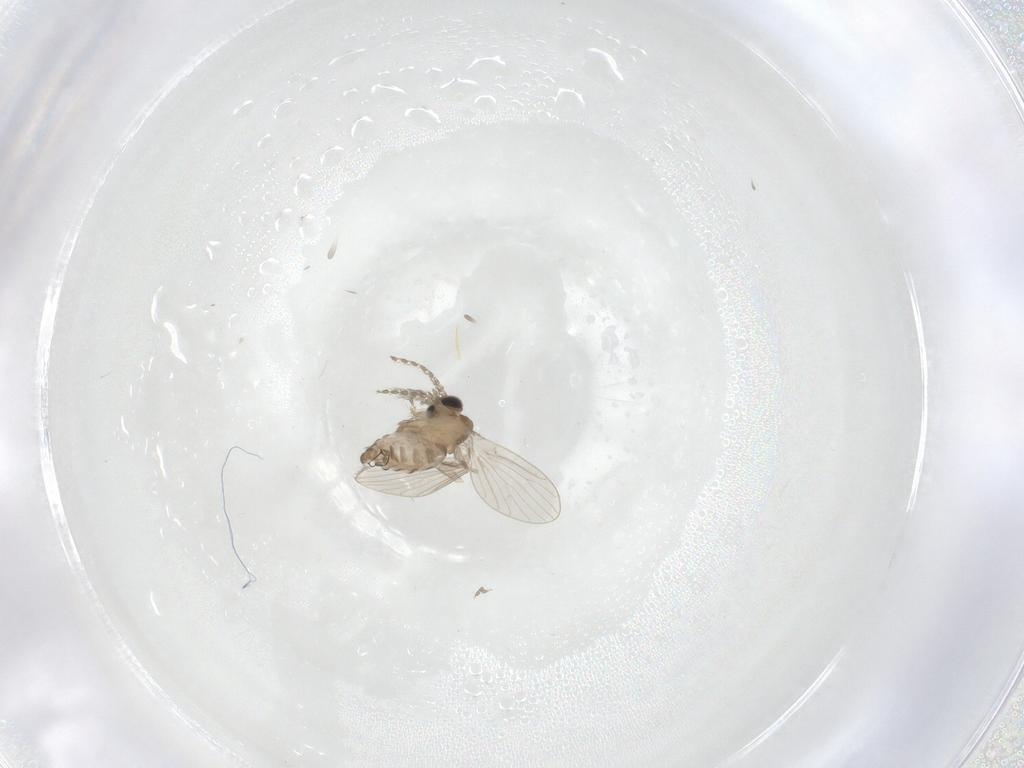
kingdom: Animalia
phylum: Arthropoda
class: Insecta
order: Diptera
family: Psychodidae
